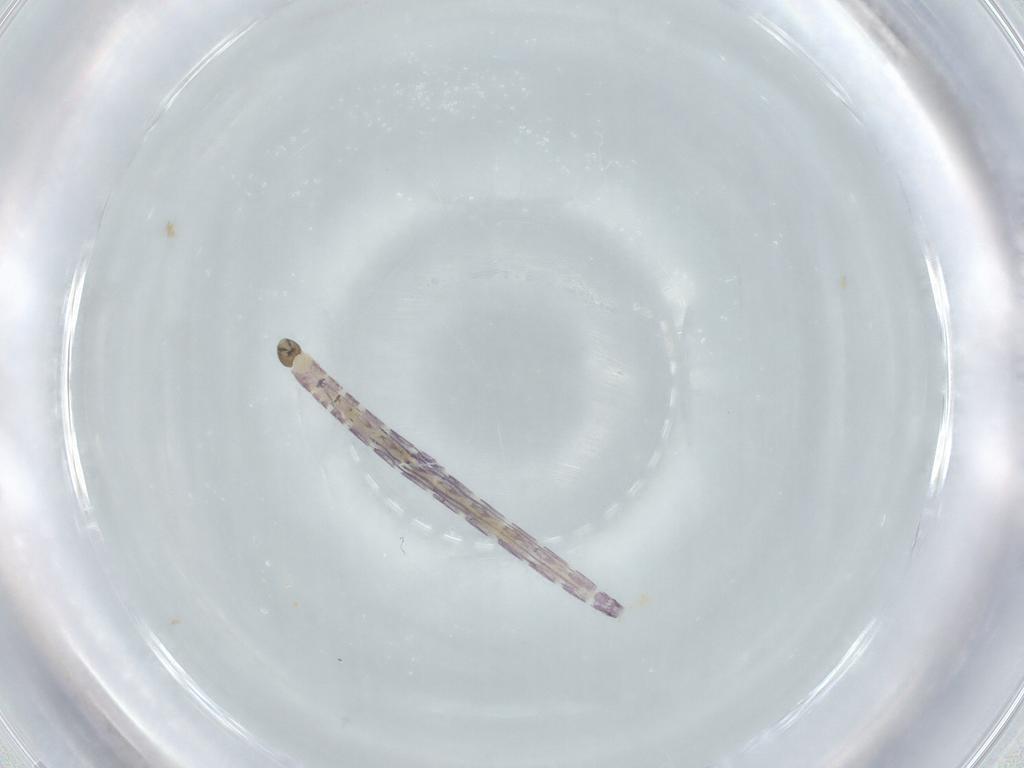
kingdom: Animalia
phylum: Arthropoda
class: Insecta
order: Diptera
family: Chironomidae
